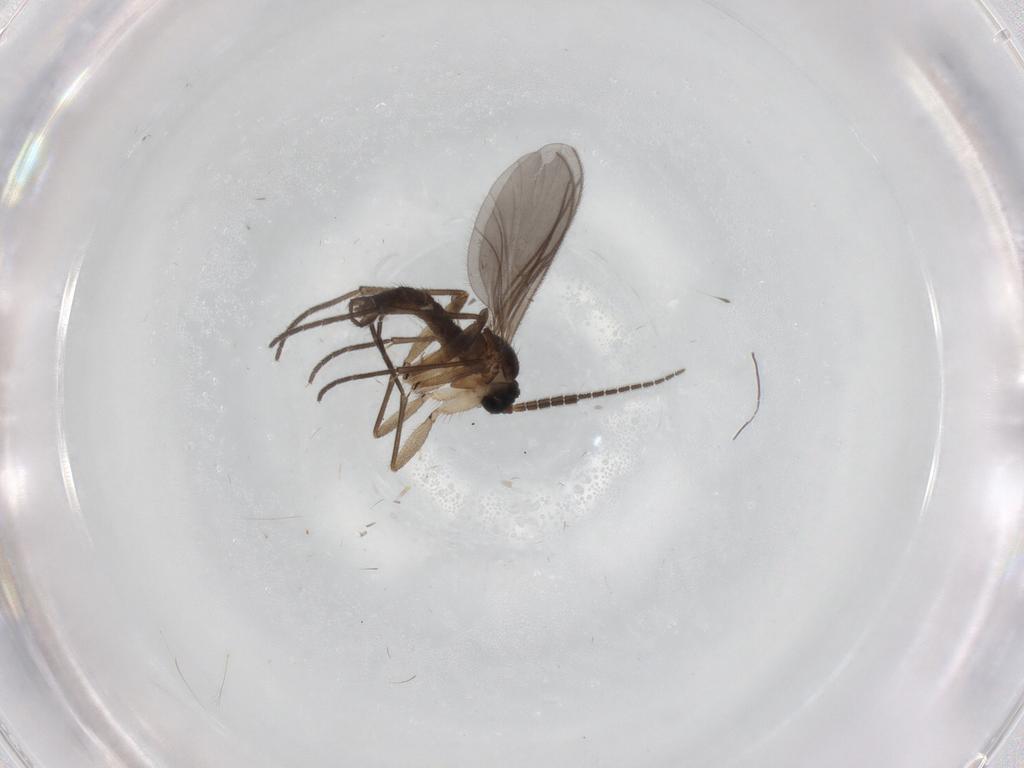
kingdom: Animalia
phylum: Arthropoda
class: Insecta
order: Diptera
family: Sciaridae
